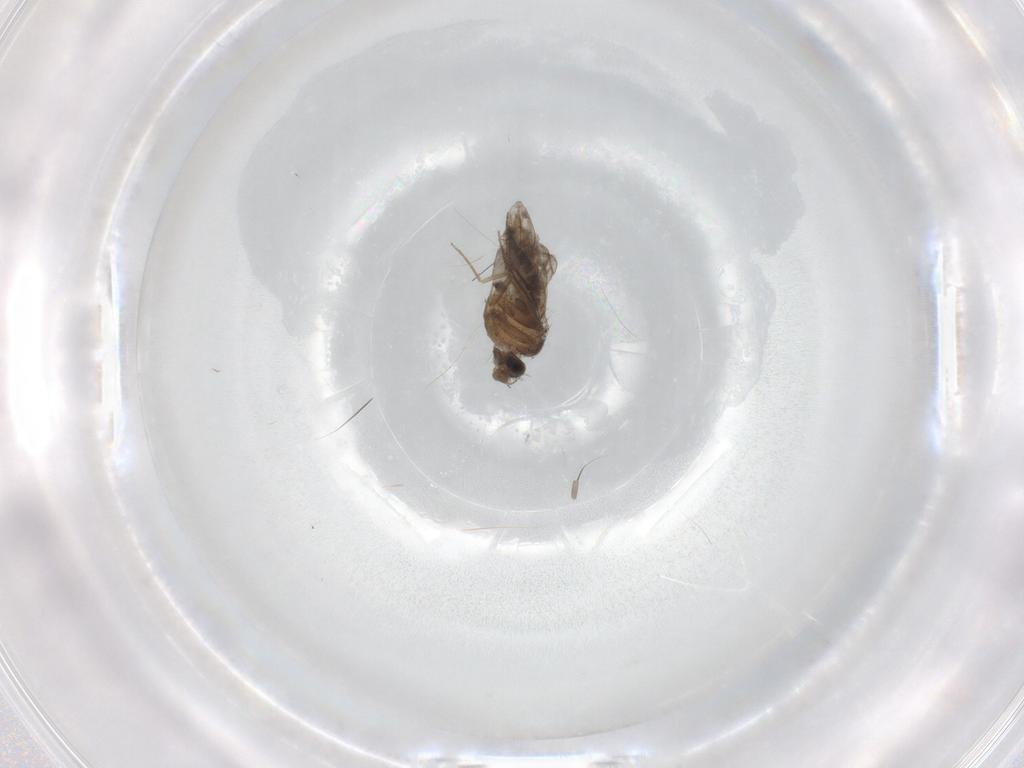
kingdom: Animalia
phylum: Arthropoda
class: Insecta
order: Diptera
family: Sciaridae
